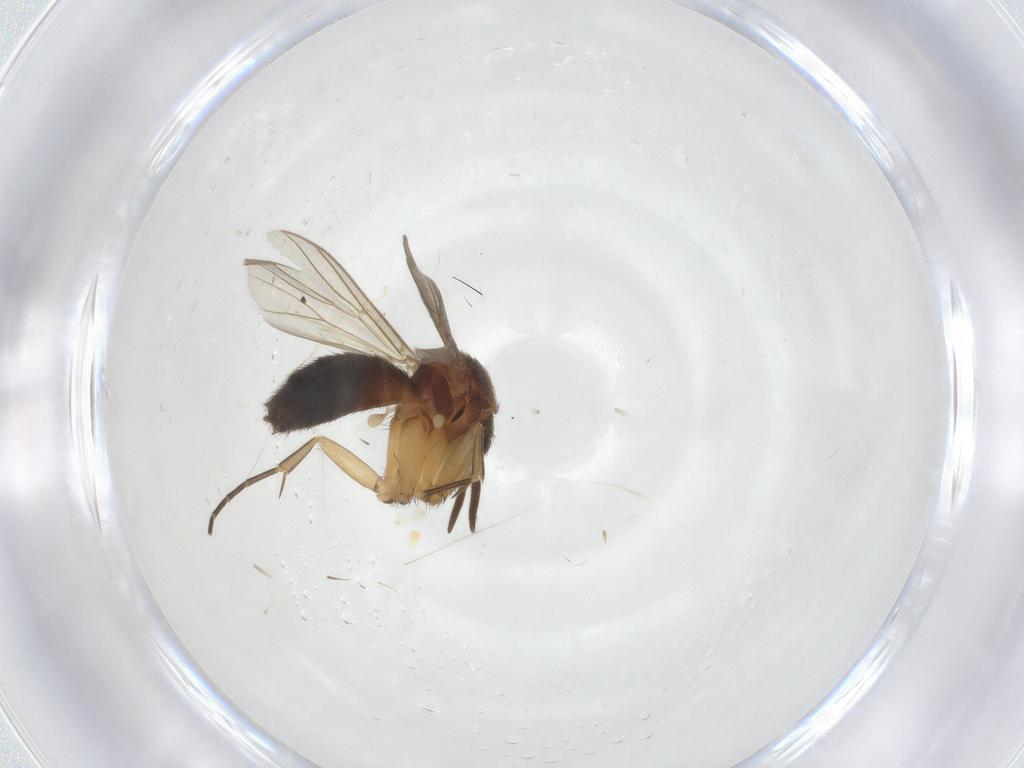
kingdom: Animalia
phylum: Arthropoda
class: Insecta
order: Diptera
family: Mycetophilidae
